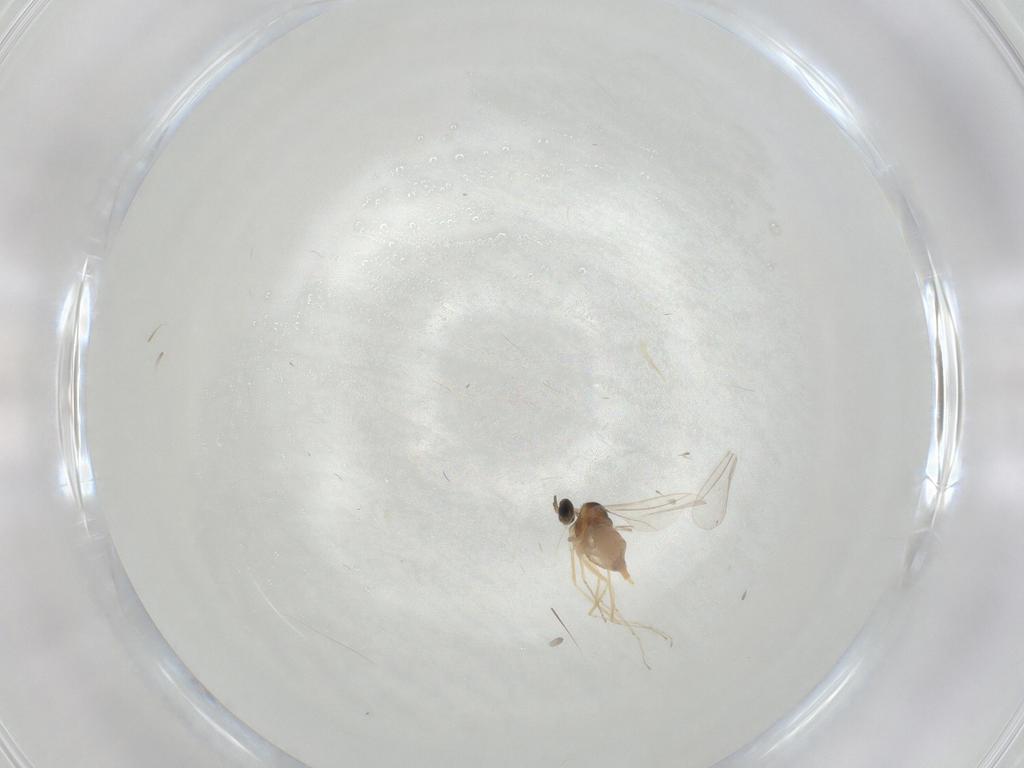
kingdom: Animalia
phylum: Arthropoda
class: Insecta
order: Diptera
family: Cecidomyiidae
